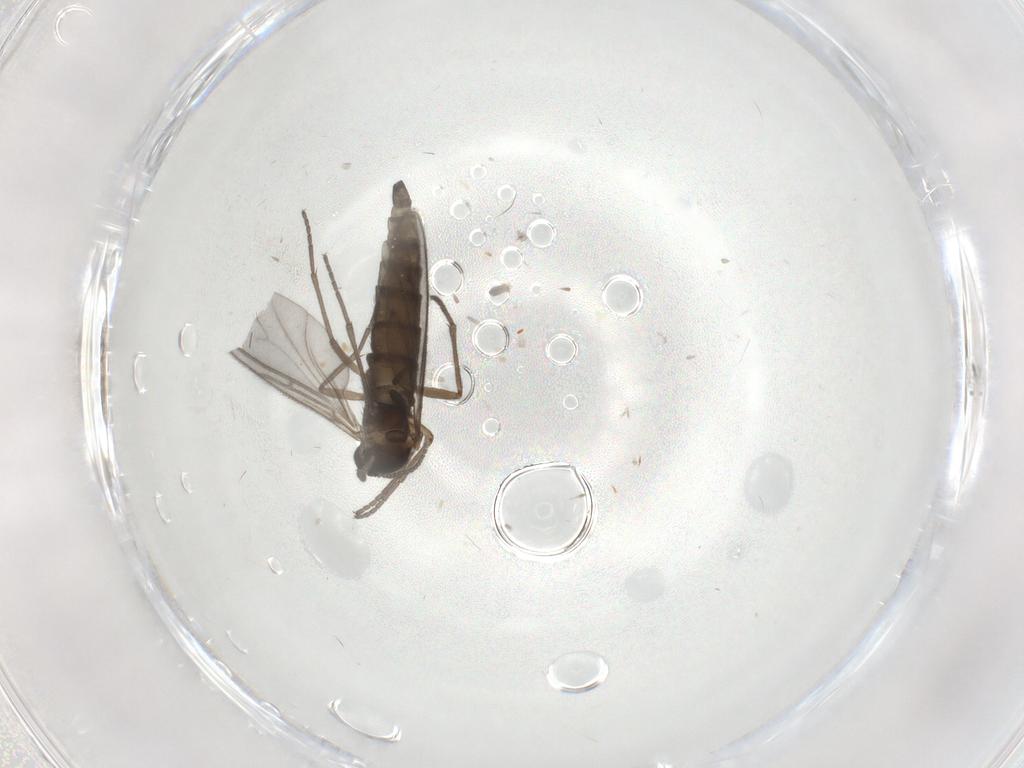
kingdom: Animalia
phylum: Arthropoda
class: Insecta
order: Diptera
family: Sciaridae
